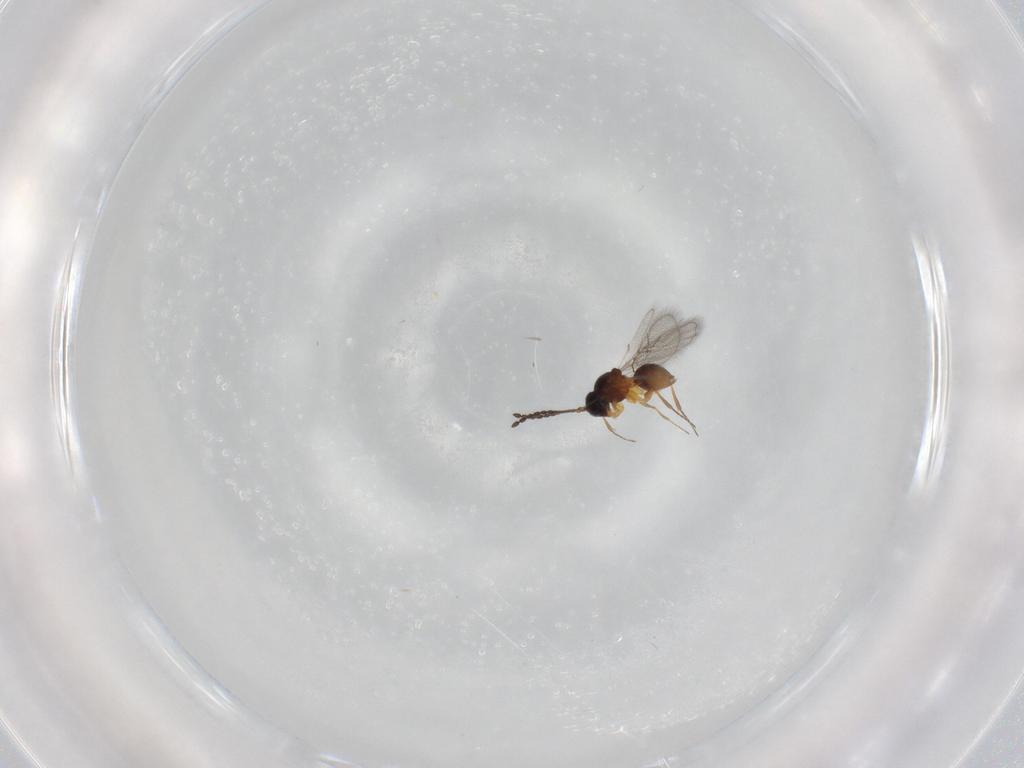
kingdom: Animalia
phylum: Arthropoda
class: Insecta
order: Hymenoptera
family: Figitidae
